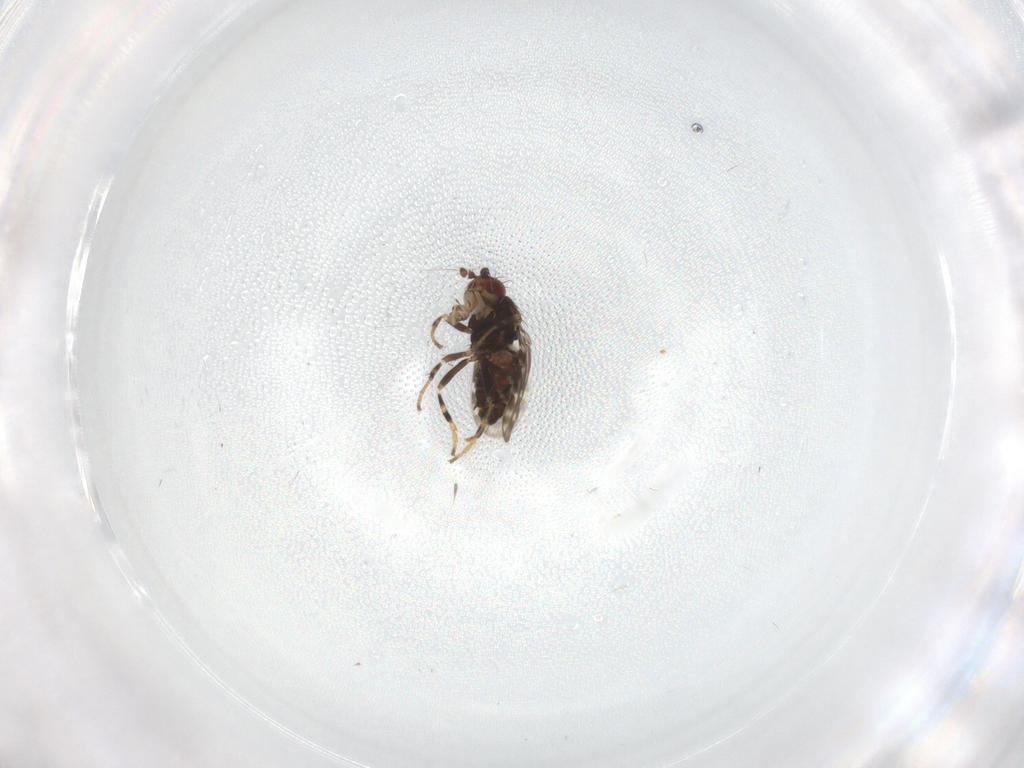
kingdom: Animalia
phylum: Arthropoda
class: Insecta
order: Diptera
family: Sphaeroceridae
